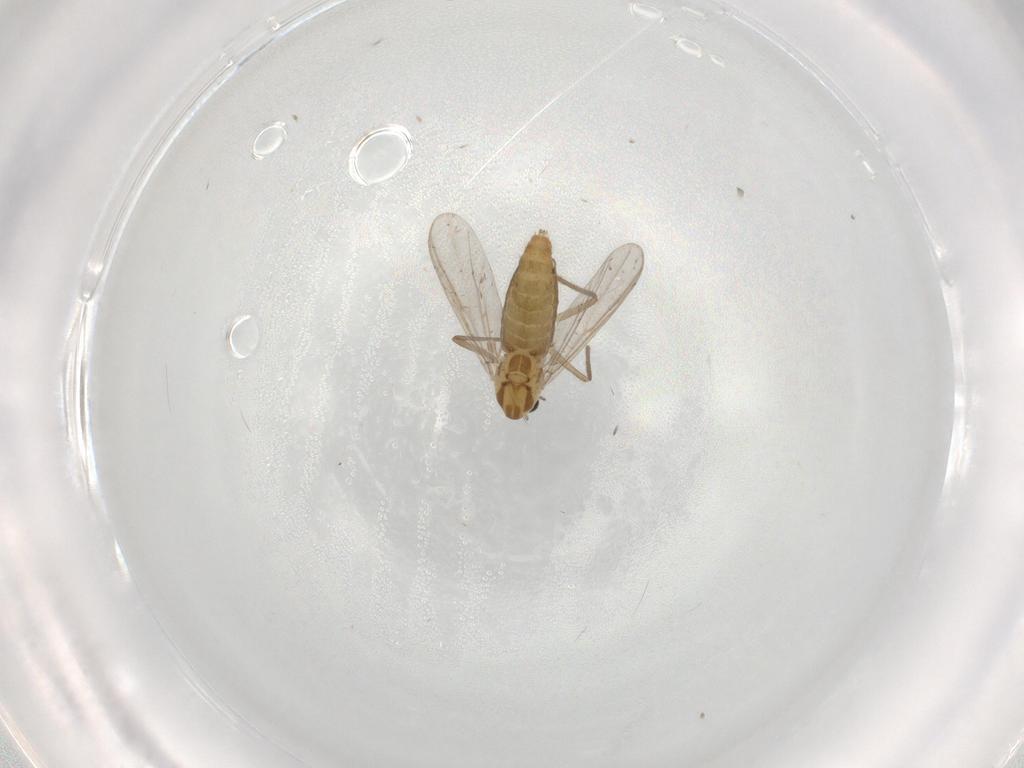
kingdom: Animalia
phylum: Arthropoda
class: Insecta
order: Diptera
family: Chironomidae
